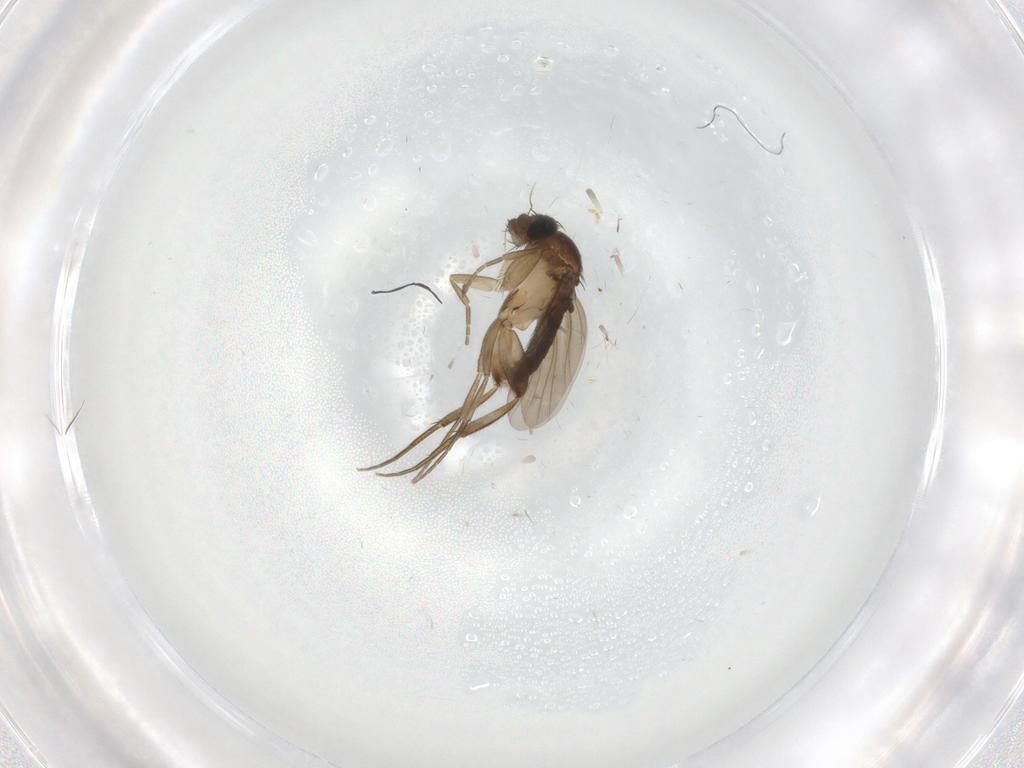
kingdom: Animalia
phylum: Arthropoda
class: Insecta
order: Diptera
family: Phoridae
